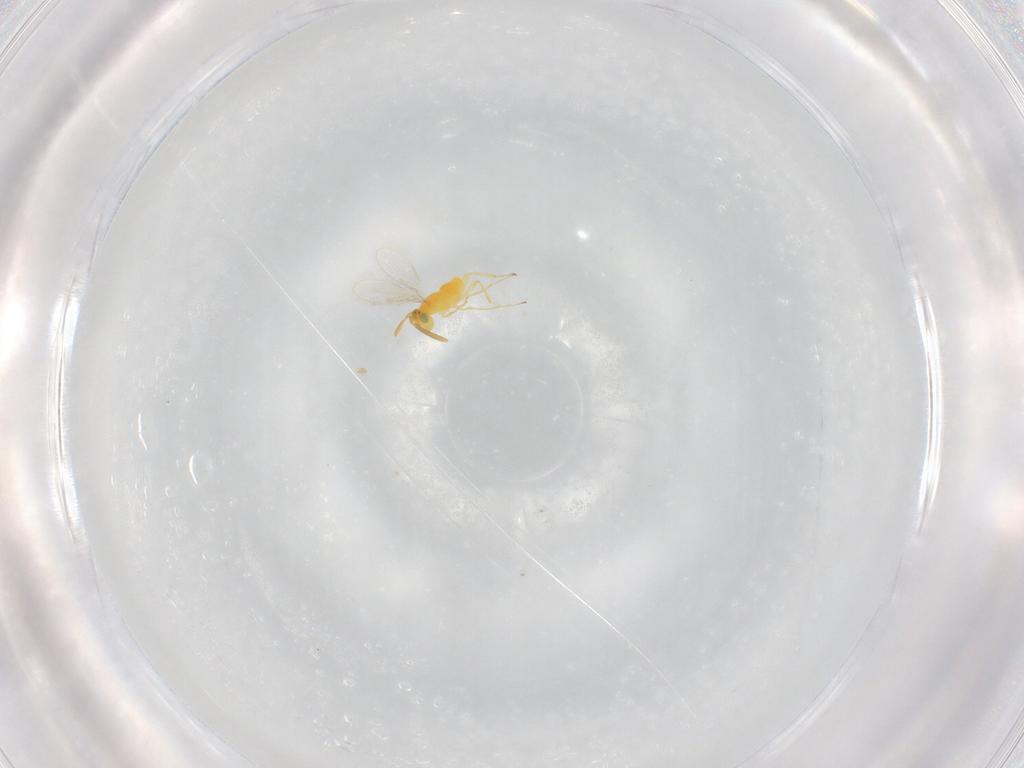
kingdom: Animalia
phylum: Arthropoda
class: Insecta
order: Hymenoptera
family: Aphelinidae
